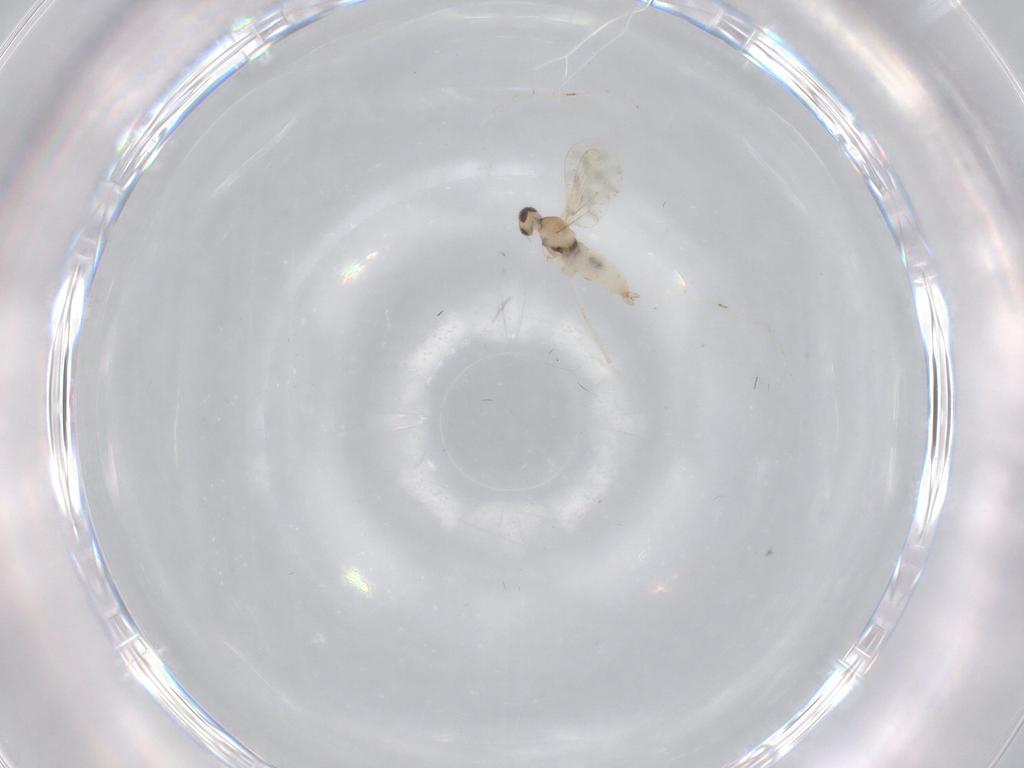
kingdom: Animalia
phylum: Arthropoda
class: Insecta
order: Diptera
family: Cecidomyiidae
